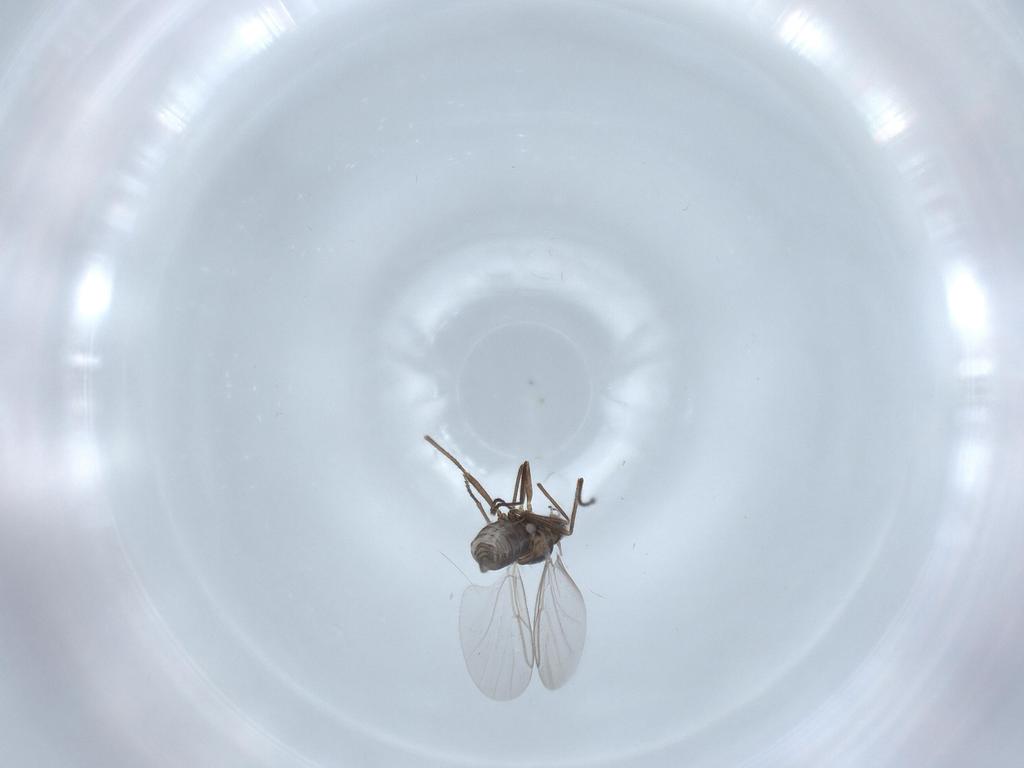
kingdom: Animalia
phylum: Arthropoda
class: Insecta
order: Diptera
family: Cecidomyiidae
